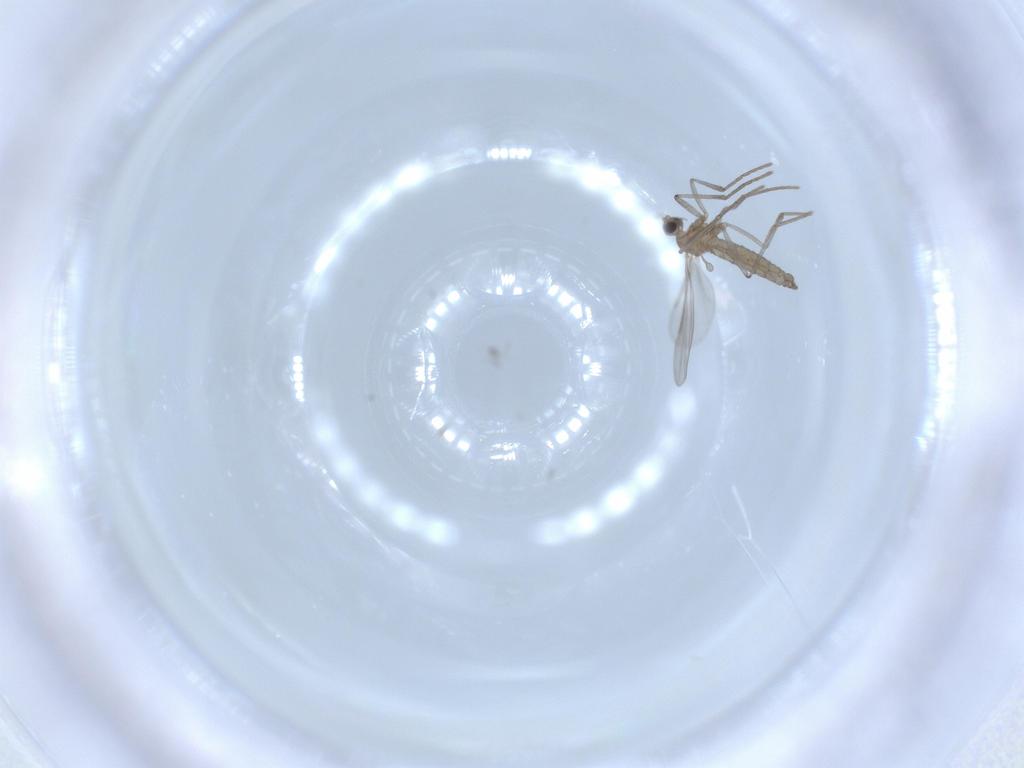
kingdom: Animalia
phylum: Arthropoda
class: Insecta
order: Diptera
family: Cecidomyiidae
